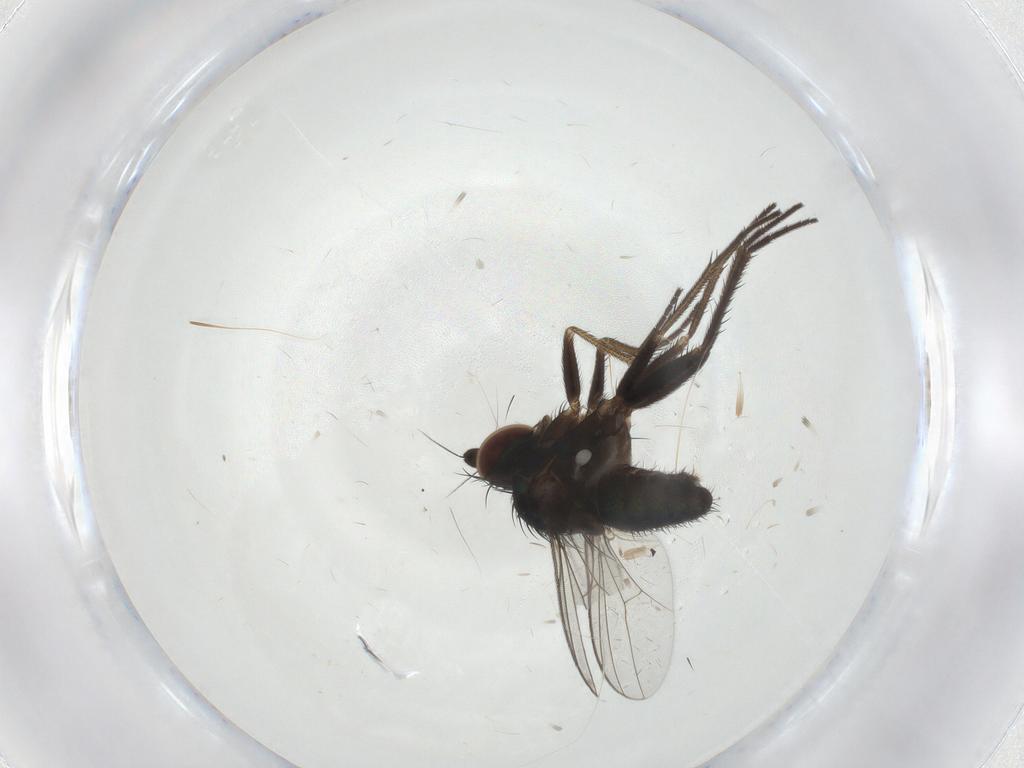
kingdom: Animalia
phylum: Arthropoda
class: Insecta
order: Diptera
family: Dolichopodidae
